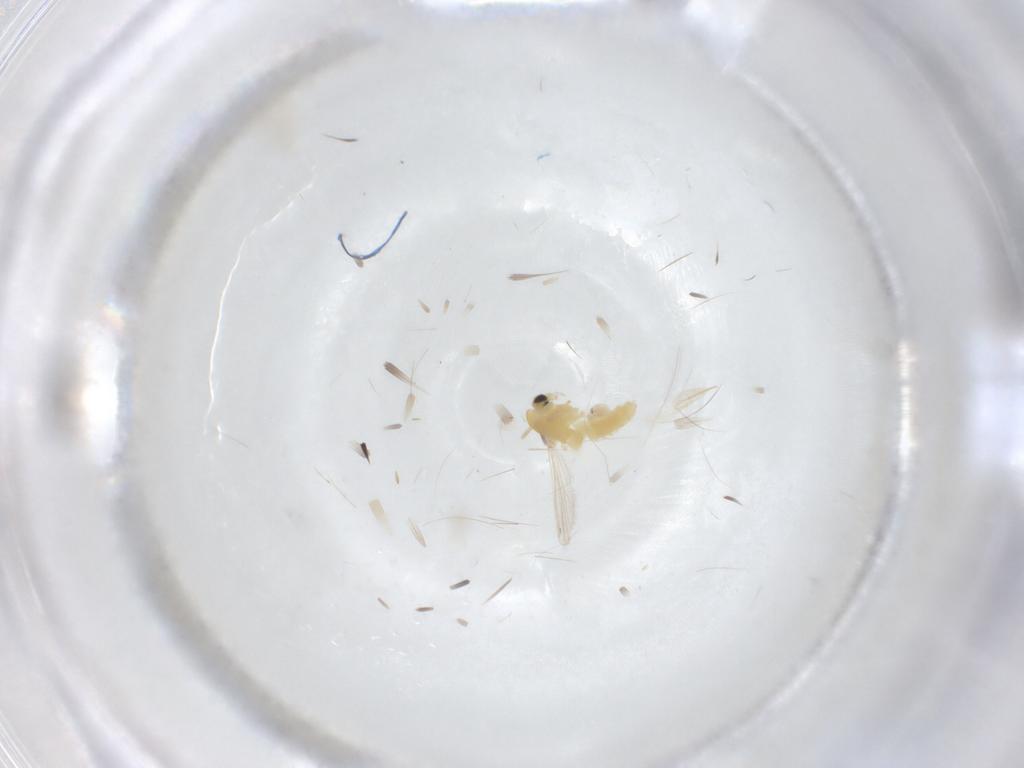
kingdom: Animalia
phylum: Arthropoda
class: Insecta
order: Diptera
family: Chironomidae
